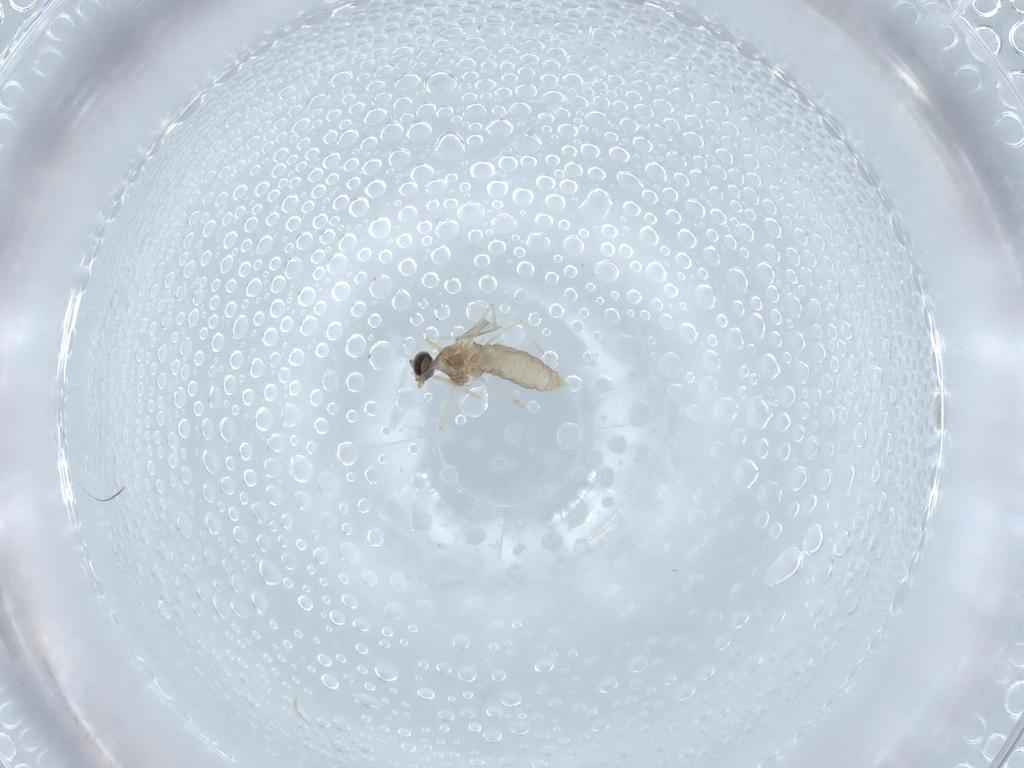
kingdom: Animalia
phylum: Arthropoda
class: Insecta
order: Diptera
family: Cecidomyiidae
